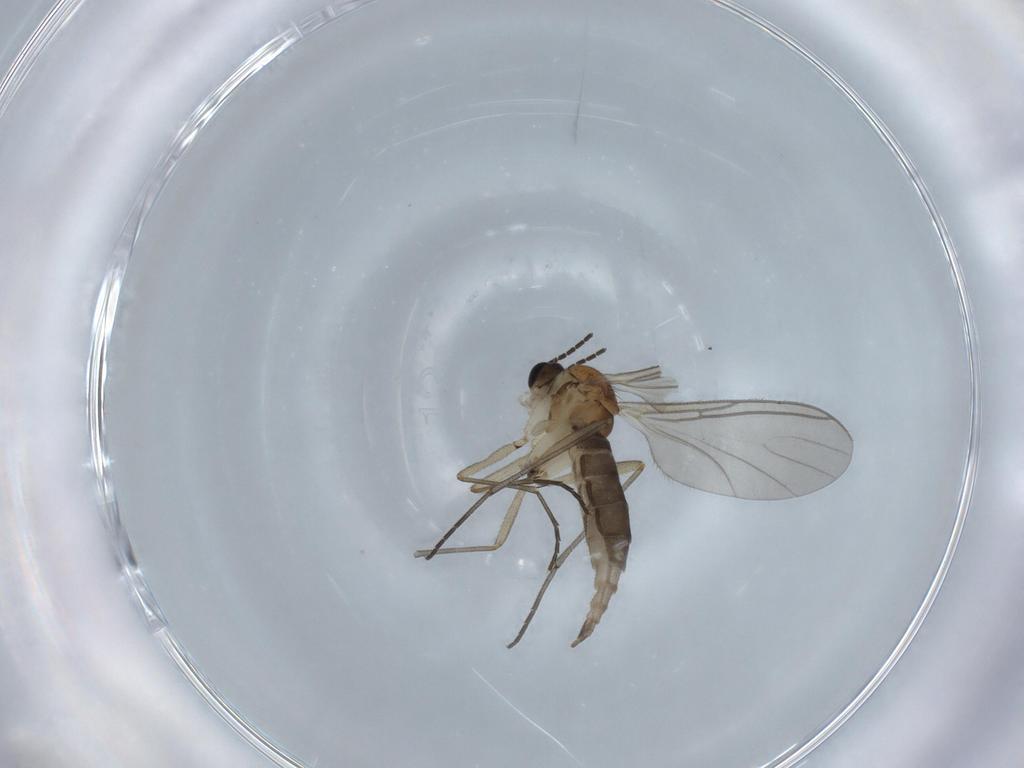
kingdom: Animalia
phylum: Arthropoda
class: Insecta
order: Diptera
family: Sciaridae
